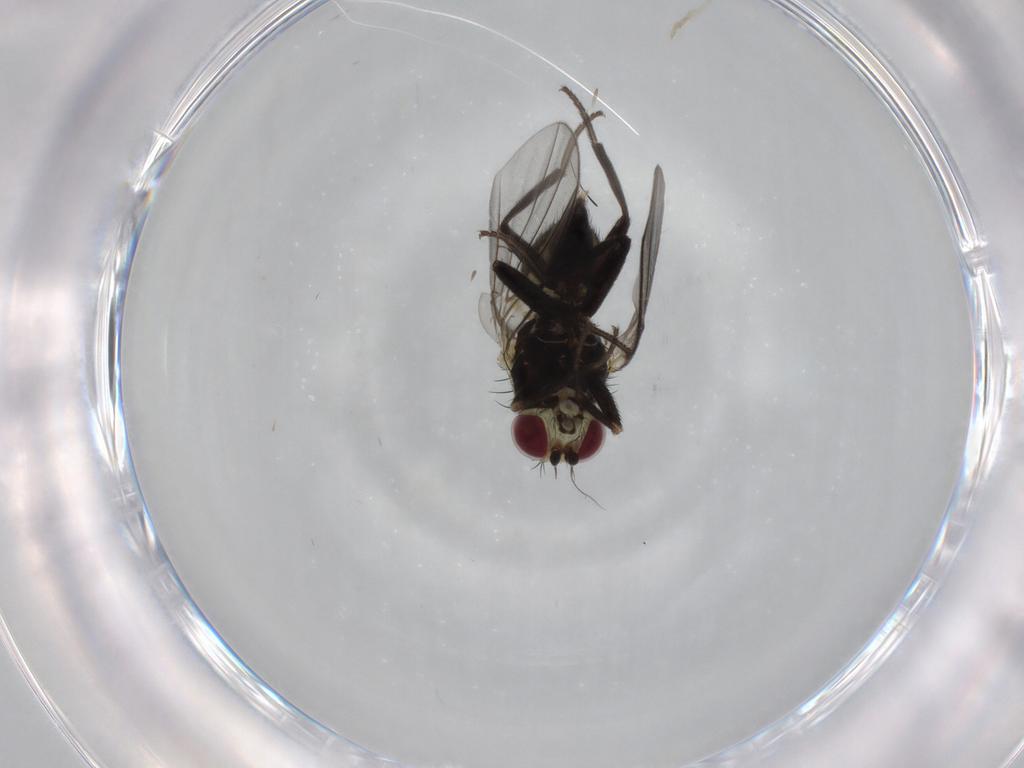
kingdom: Animalia
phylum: Arthropoda
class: Insecta
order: Diptera
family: Agromyzidae
